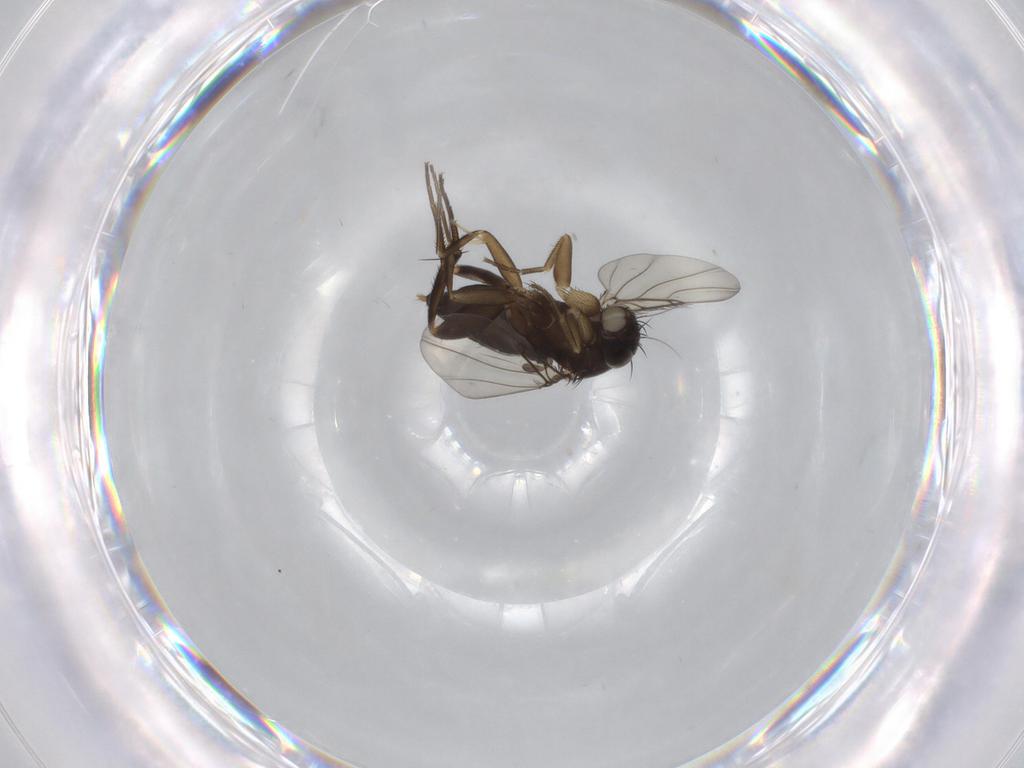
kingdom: Animalia
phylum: Arthropoda
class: Insecta
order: Diptera
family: Phoridae
